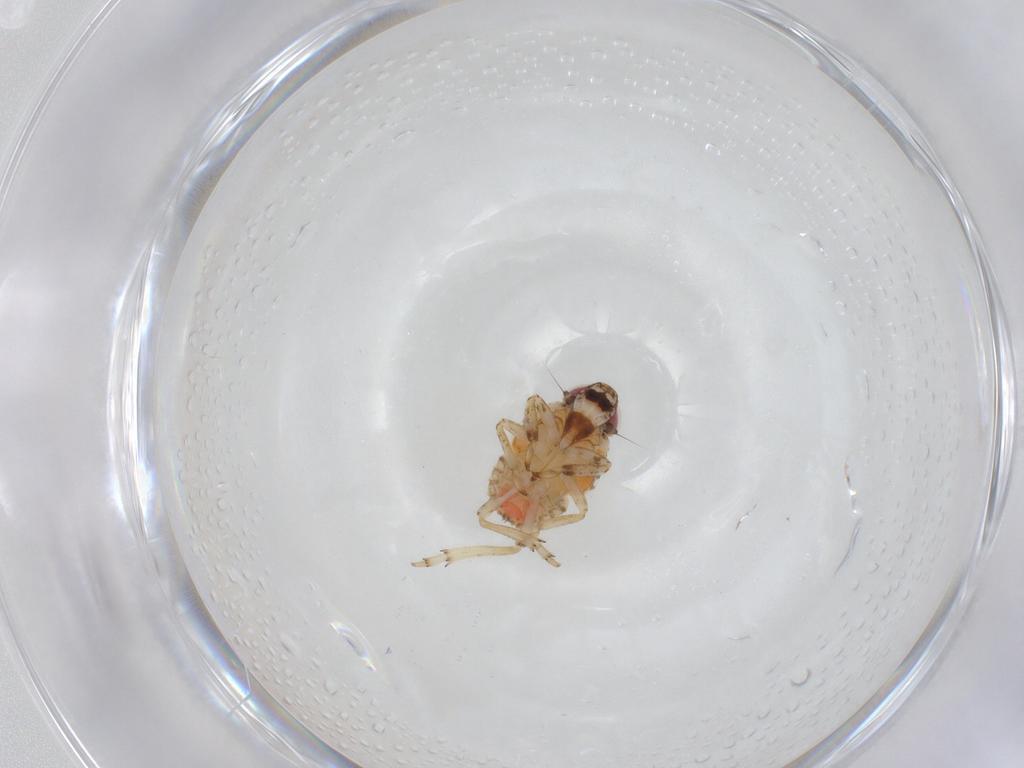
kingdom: Animalia
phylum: Arthropoda
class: Insecta
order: Hemiptera
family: Issidae
